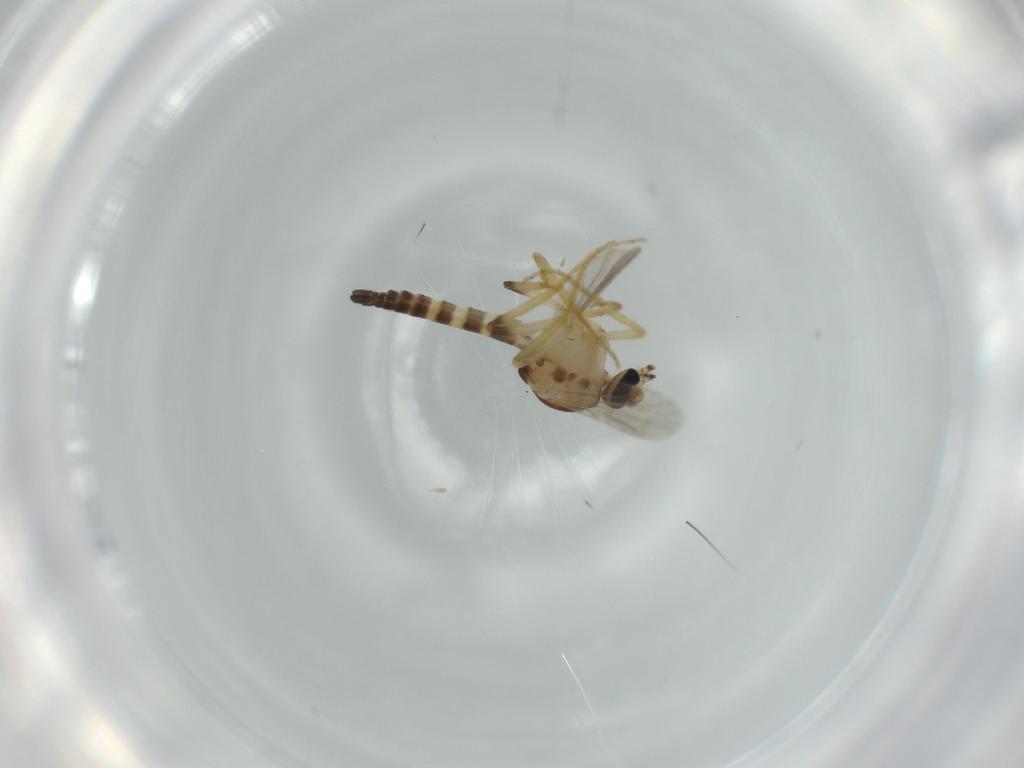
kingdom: Animalia
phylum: Arthropoda
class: Insecta
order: Diptera
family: Ceratopogonidae
